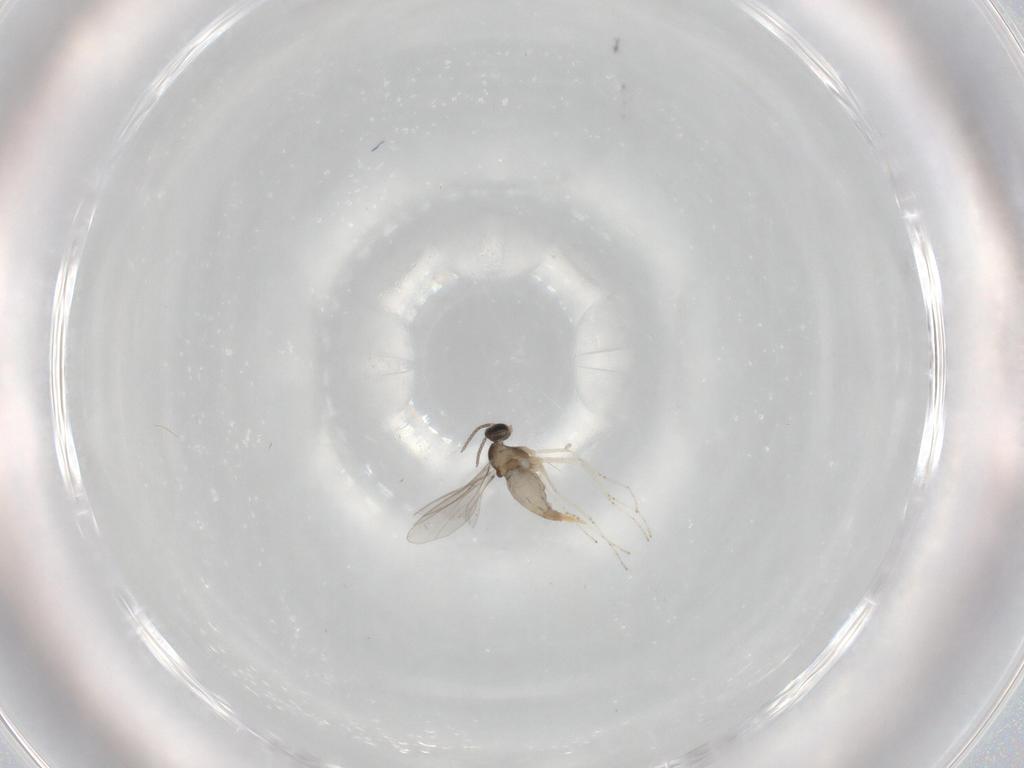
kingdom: Animalia
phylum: Arthropoda
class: Insecta
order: Diptera
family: Cecidomyiidae
